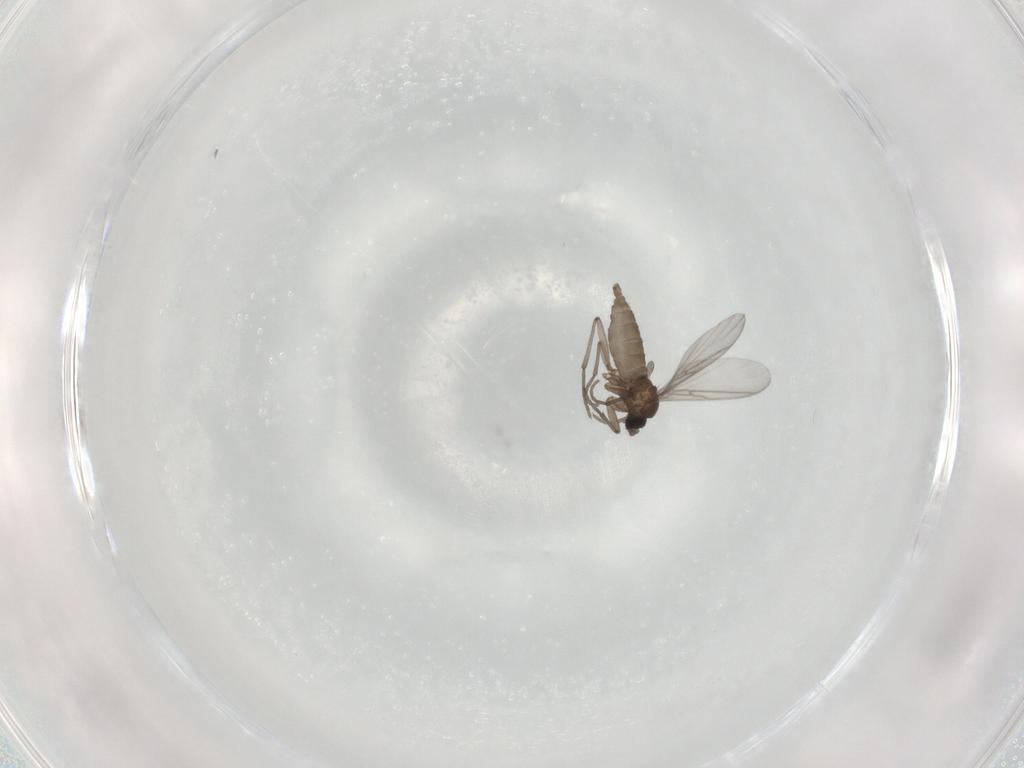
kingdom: Animalia
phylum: Arthropoda
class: Insecta
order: Diptera
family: Sciaridae
